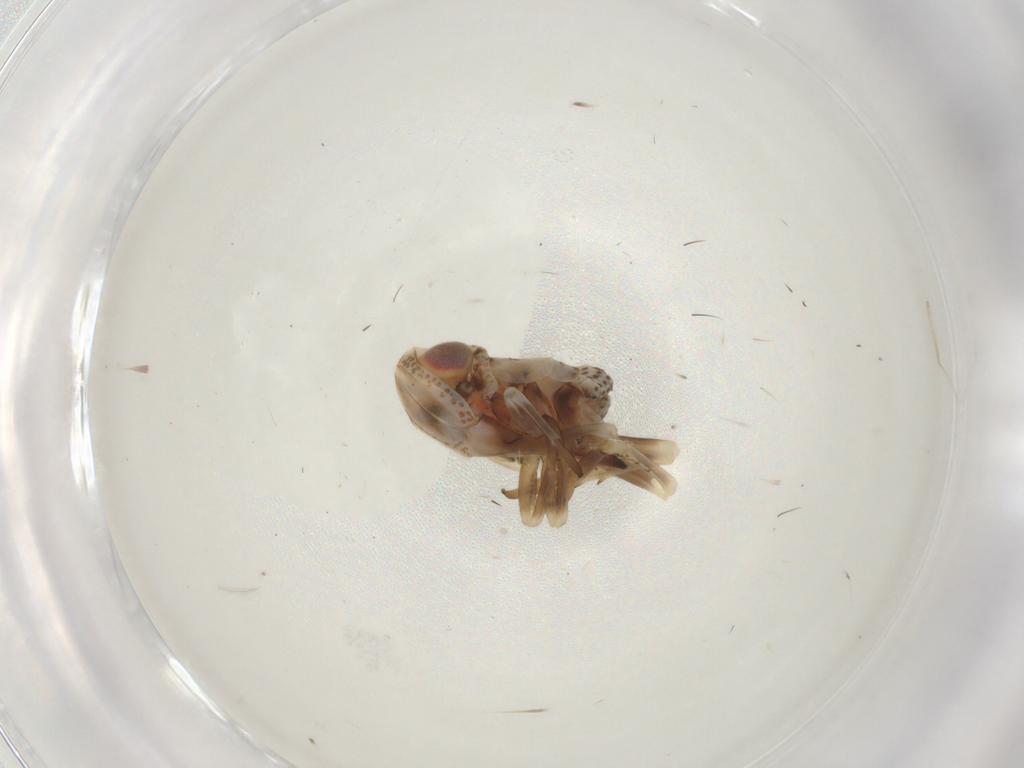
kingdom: Animalia
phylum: Arthropoda
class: Insecta
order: Hemiptera
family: Fulgoroidea_incertae_sedis
